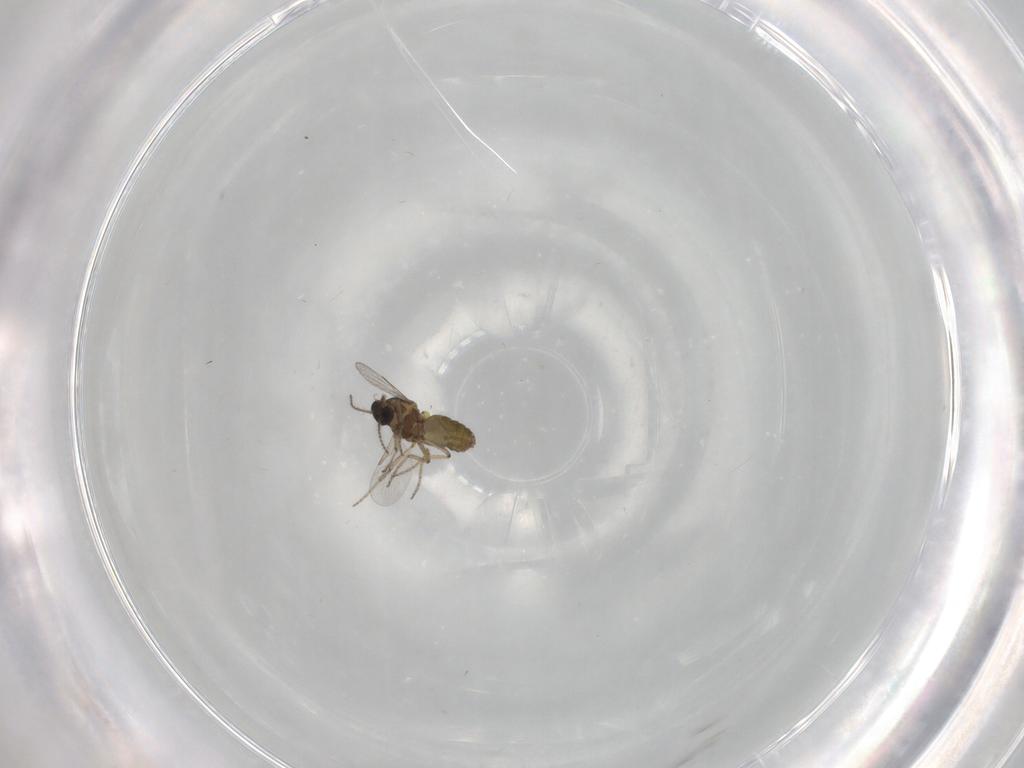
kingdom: Animalia
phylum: Arthropoda
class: Insecta
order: Diptera
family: Ceratopogonidae
